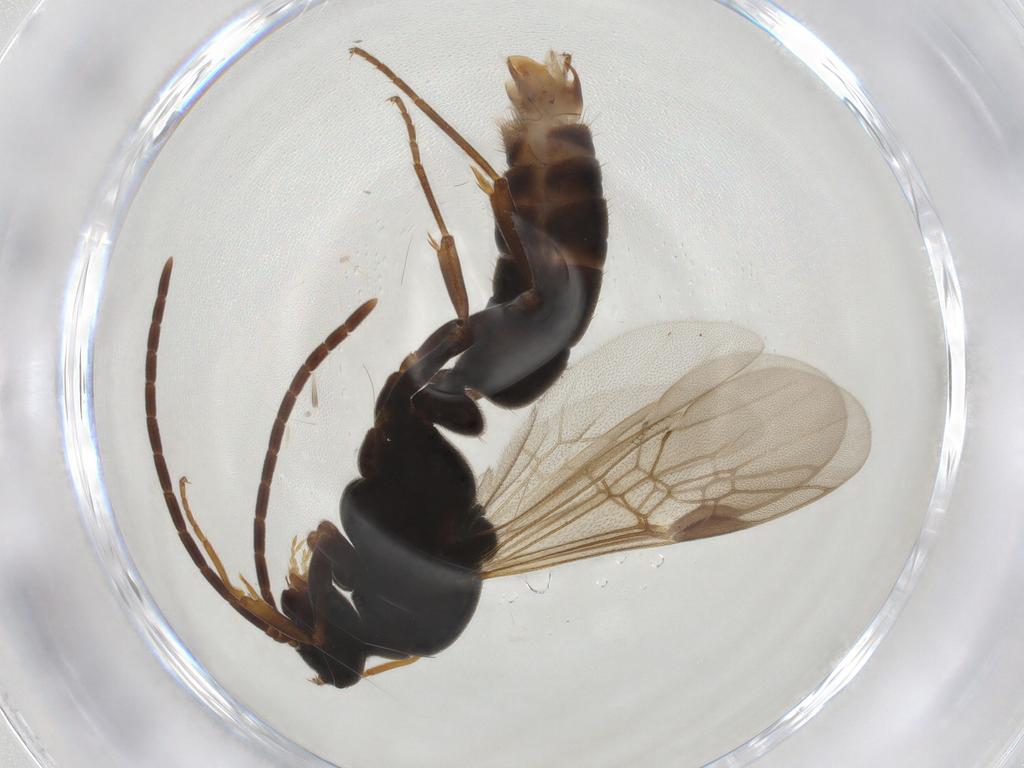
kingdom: Animalia
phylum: Arthropoda
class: Insecta
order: Hymenoptera
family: Formicidae
